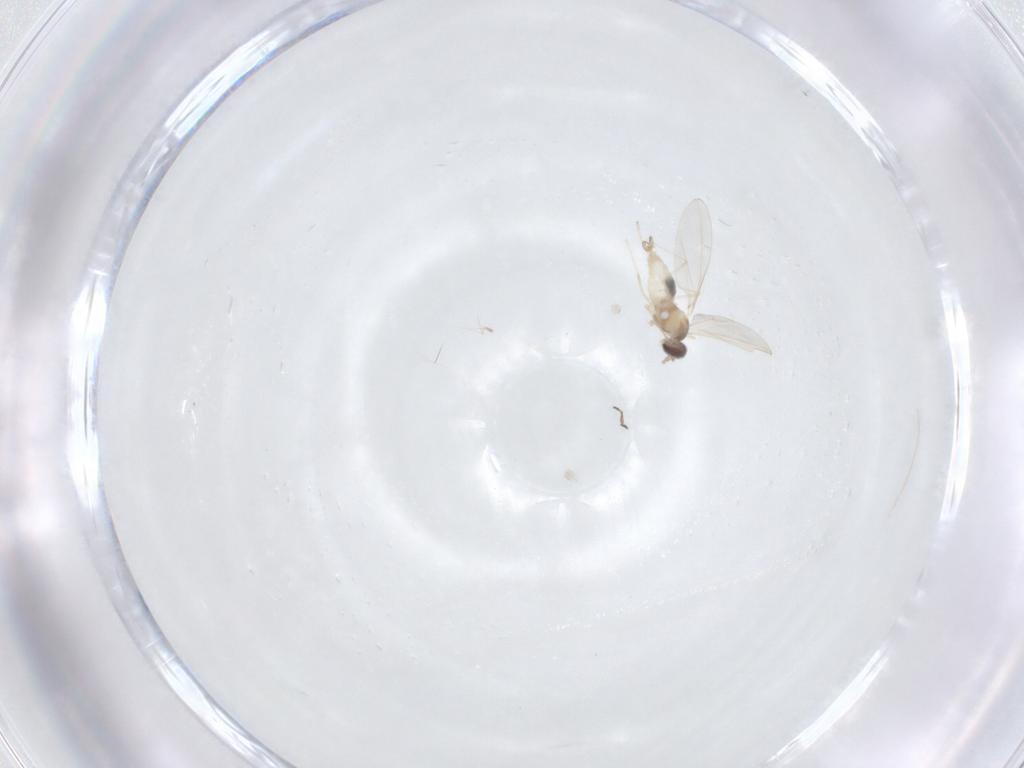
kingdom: Animalia
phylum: Arthropoda
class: Insecta
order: Diptera
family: Chironomidae
